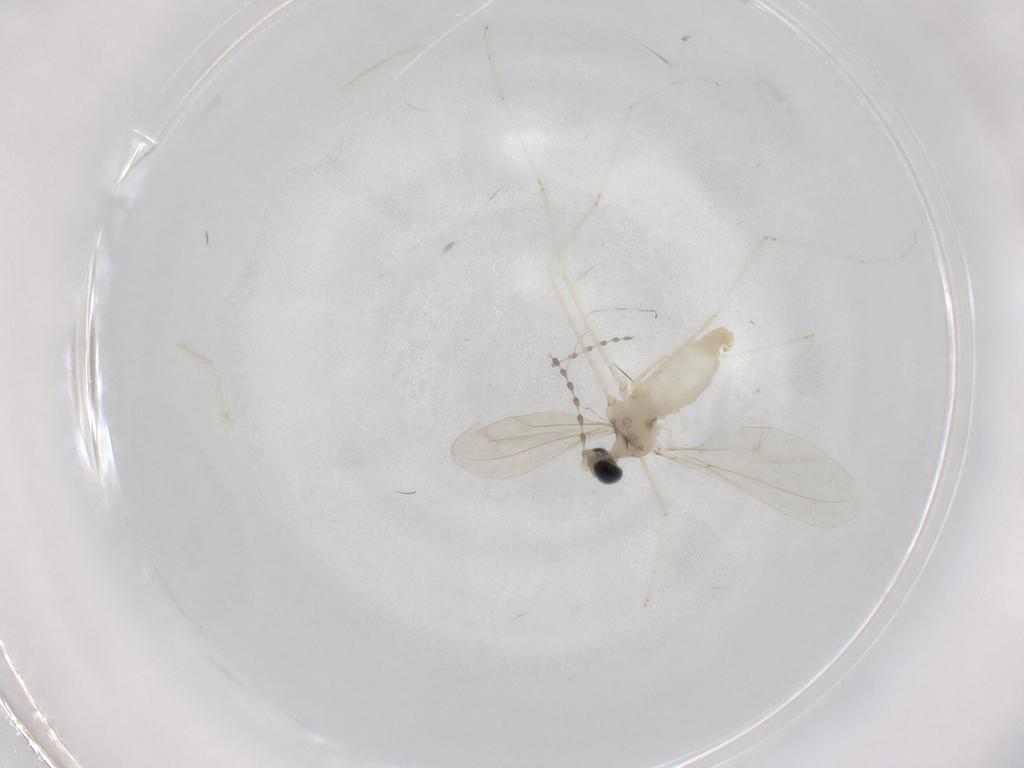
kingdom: Animalia
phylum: Arthropoda
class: Insecta
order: Diptera
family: Cecidomyiidae
